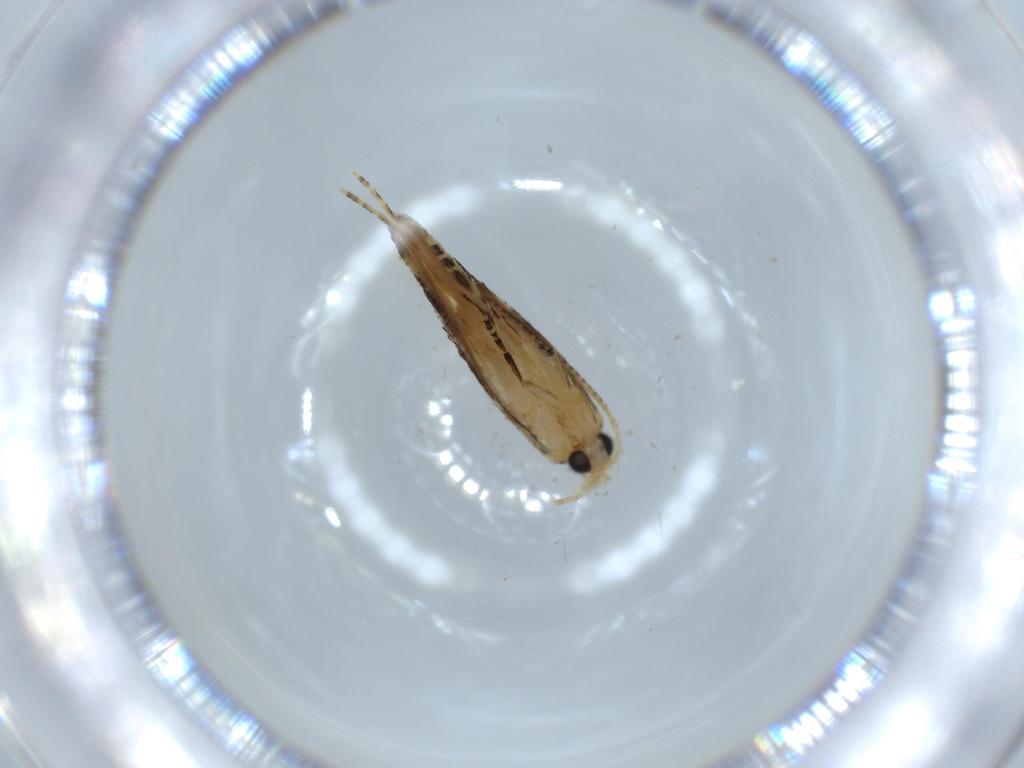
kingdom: Animalia
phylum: Arthropoda
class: Insecta
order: Lepidoptera
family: Bucculatricidae
